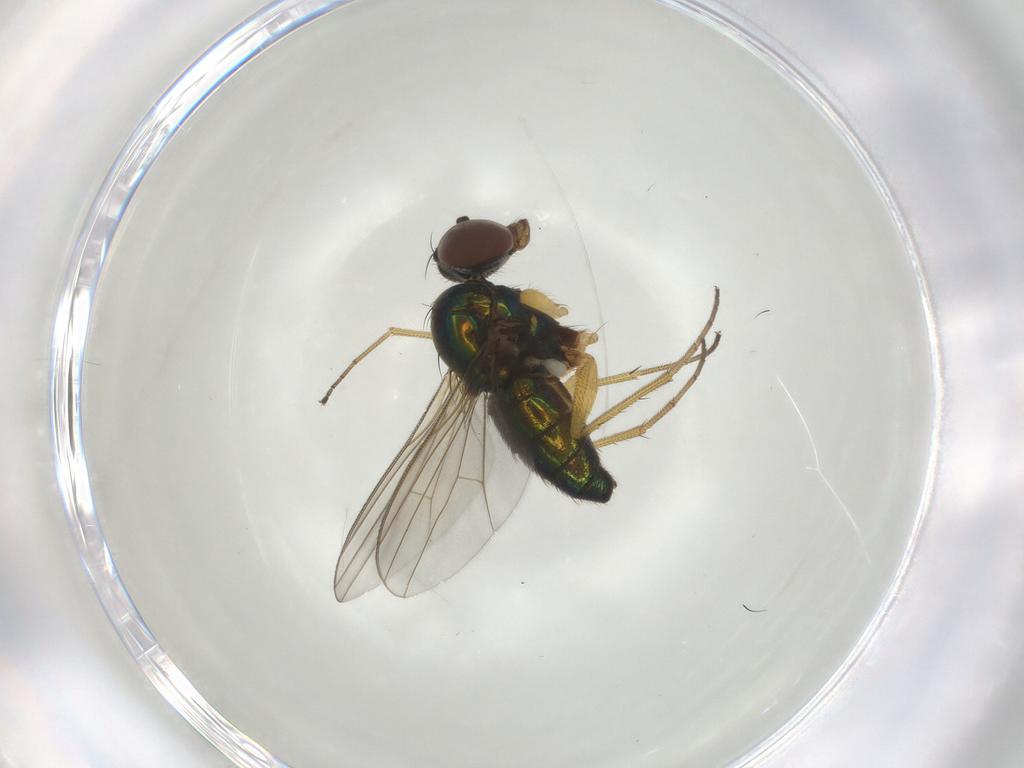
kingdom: Animalia
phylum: Arthropoda
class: Insecta
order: Diptera
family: Dolichopodidae
